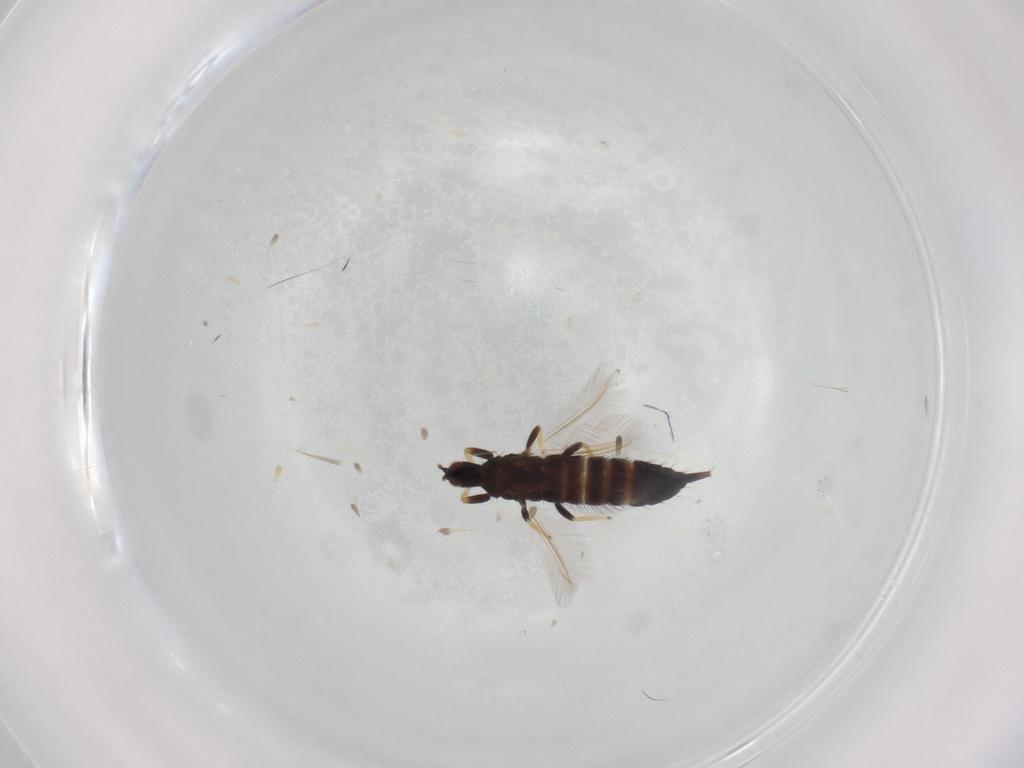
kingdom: Animalia
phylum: Arthropoda
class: Insecta
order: Thysanoptera
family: Phlaeothripidae
